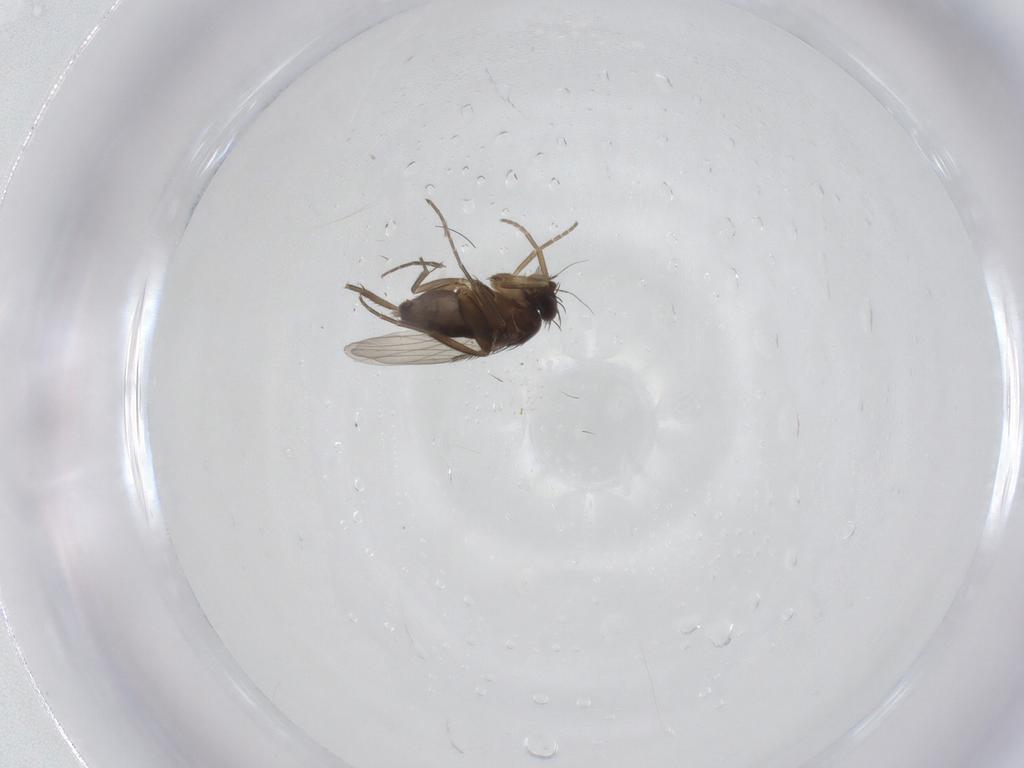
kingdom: Animalia
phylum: Arthropoda
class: Insecta
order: Diptera
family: Phoridae
